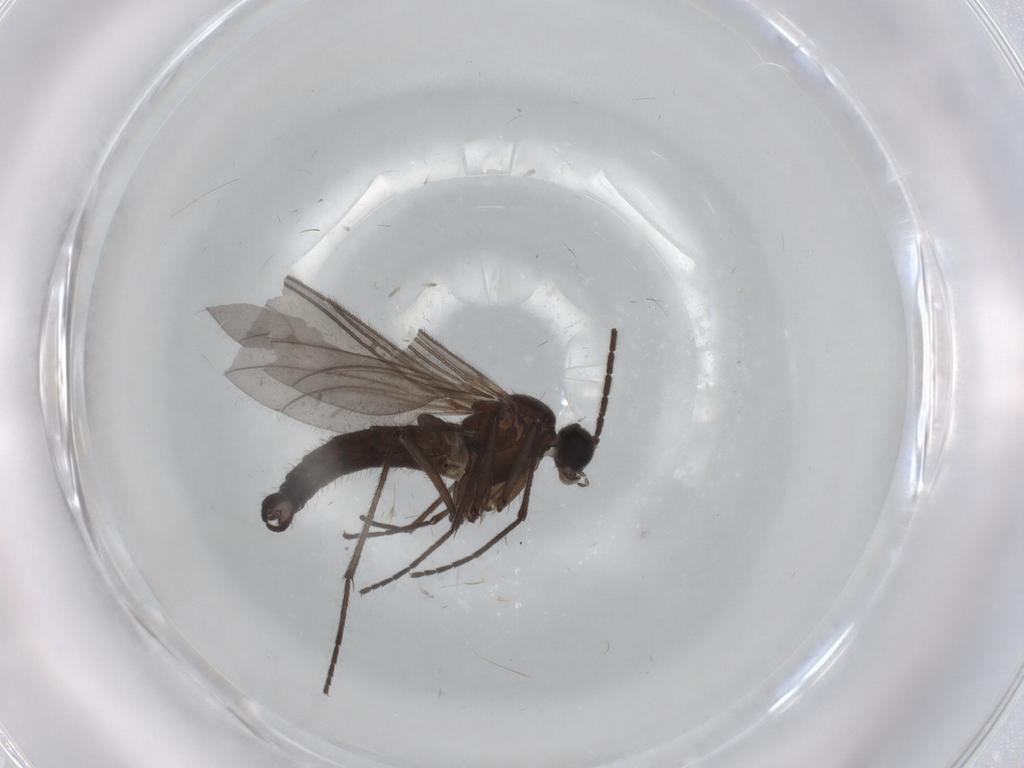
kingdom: Animalia
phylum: Arthropoda
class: Insecta
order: Diptera
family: Sciaridae
